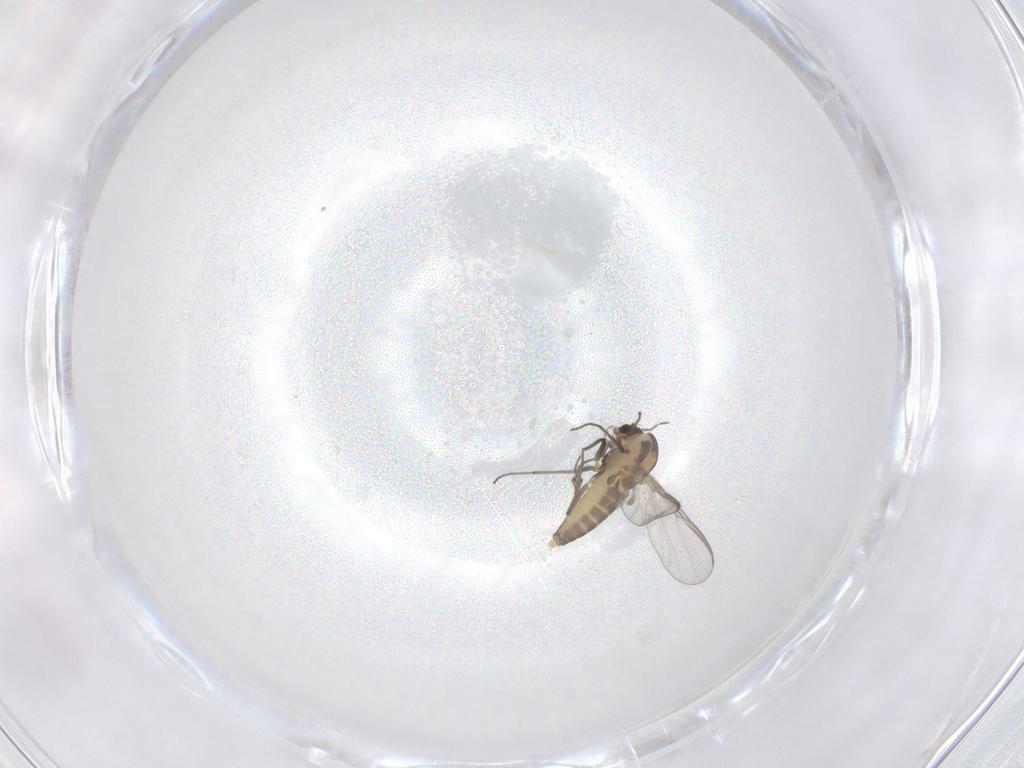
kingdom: Animalia
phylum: Arthropoda
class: Insecta
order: Diptera
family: Chironomidae
